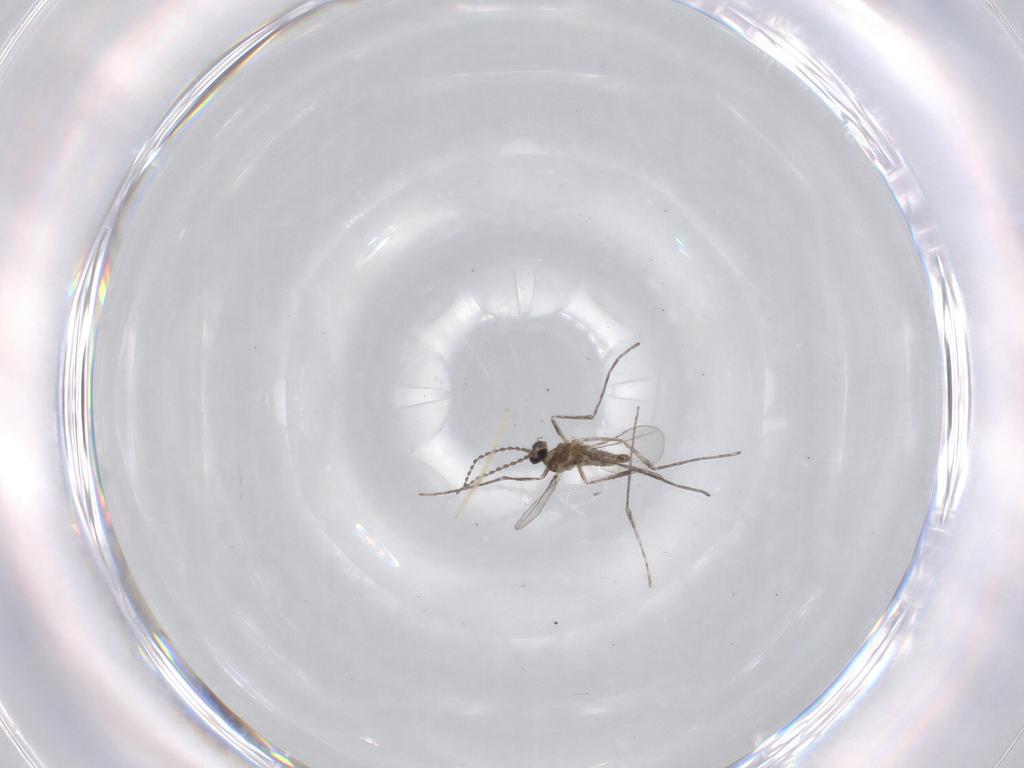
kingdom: Animalia
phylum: Arthropoda
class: Insecta
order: Diptera
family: Chironomidae
